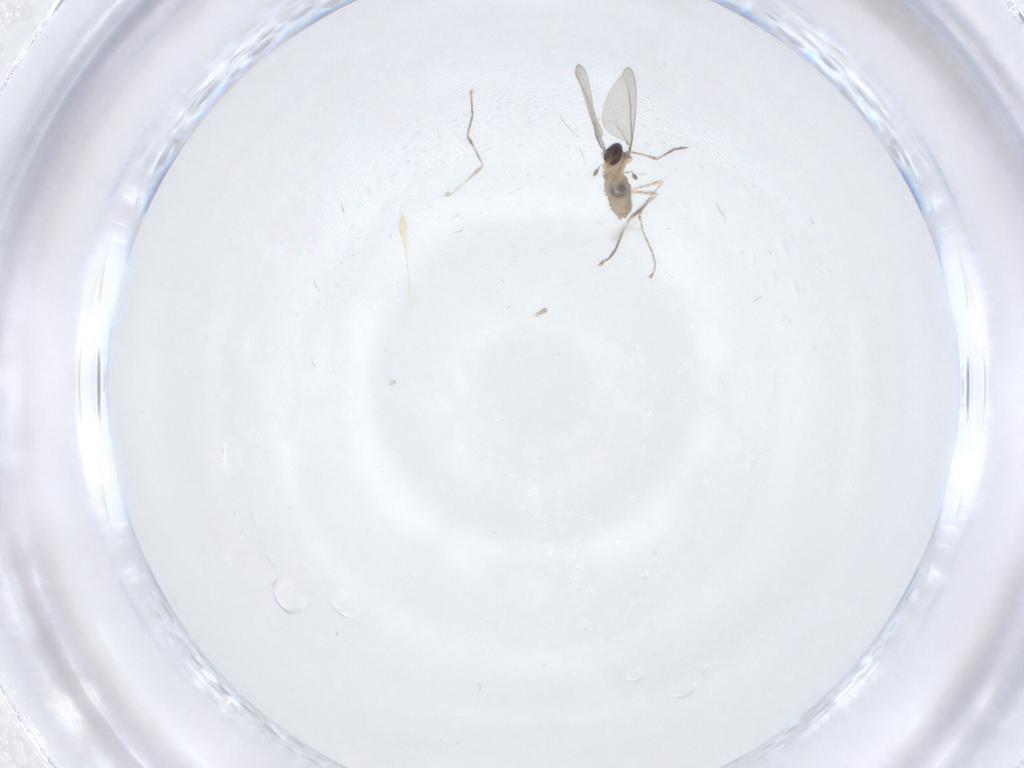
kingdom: Animalia
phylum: Arthropoda
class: Insecta
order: Diptera
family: Cecidomyiidae
